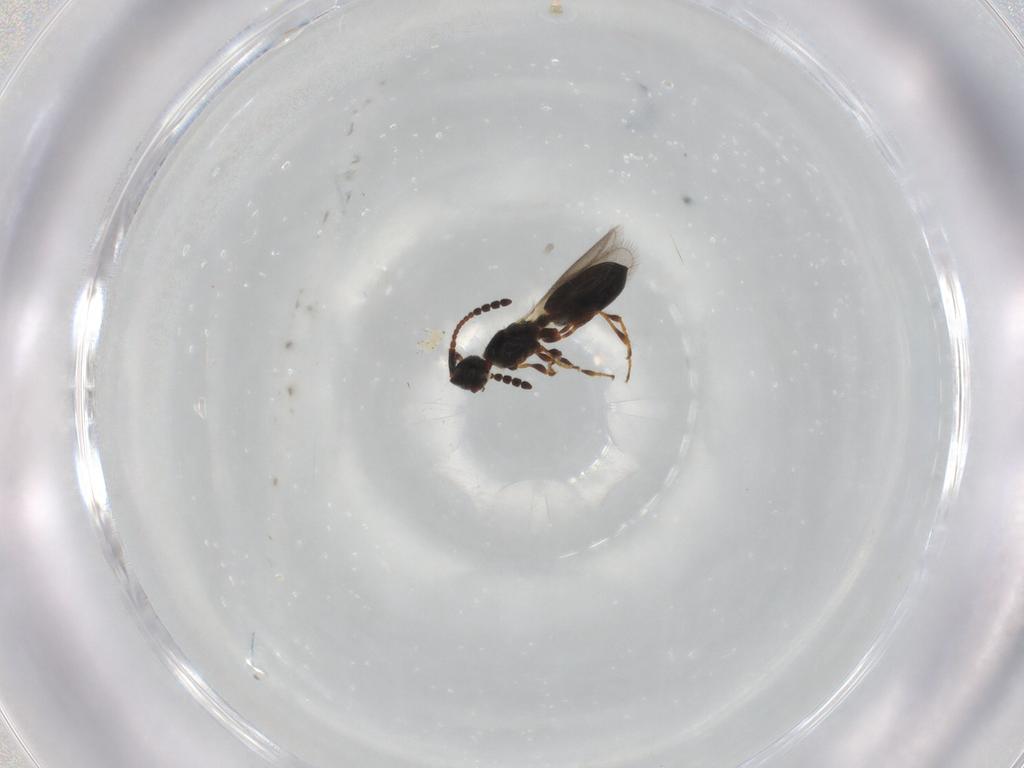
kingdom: Animalia
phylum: Arthropoda
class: Insecta
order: Hymenoptera
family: Diapriidae
